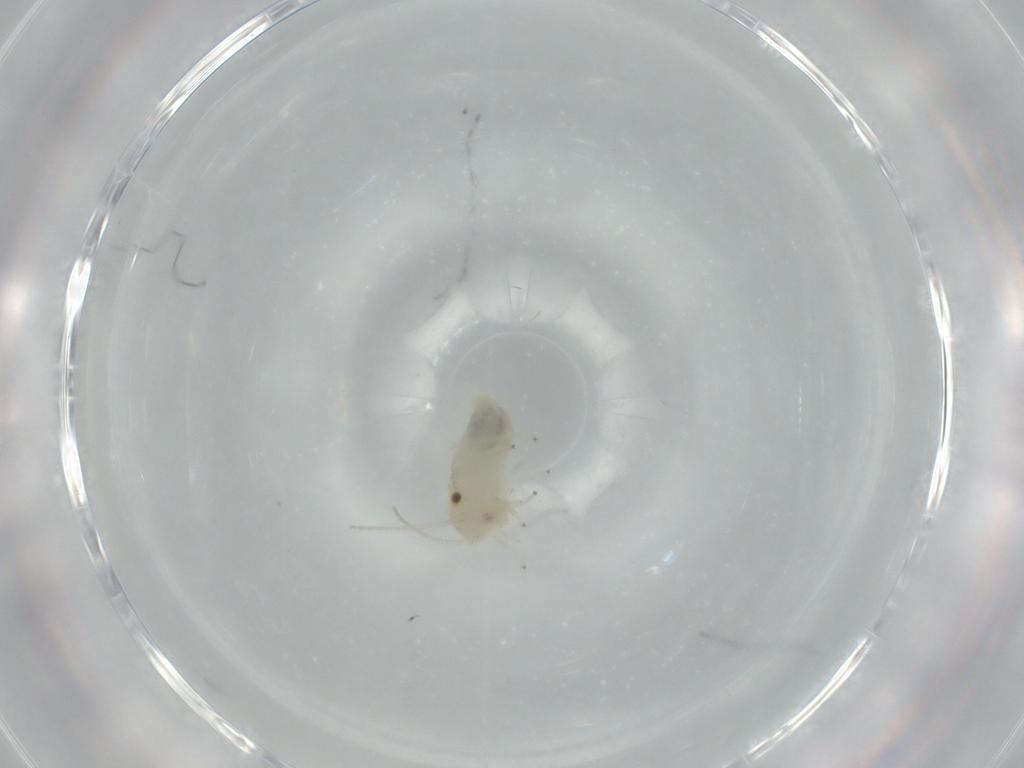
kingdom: Animalia
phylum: Arthropoda
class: Insecta
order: Psocodea
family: Caeciliusidae
